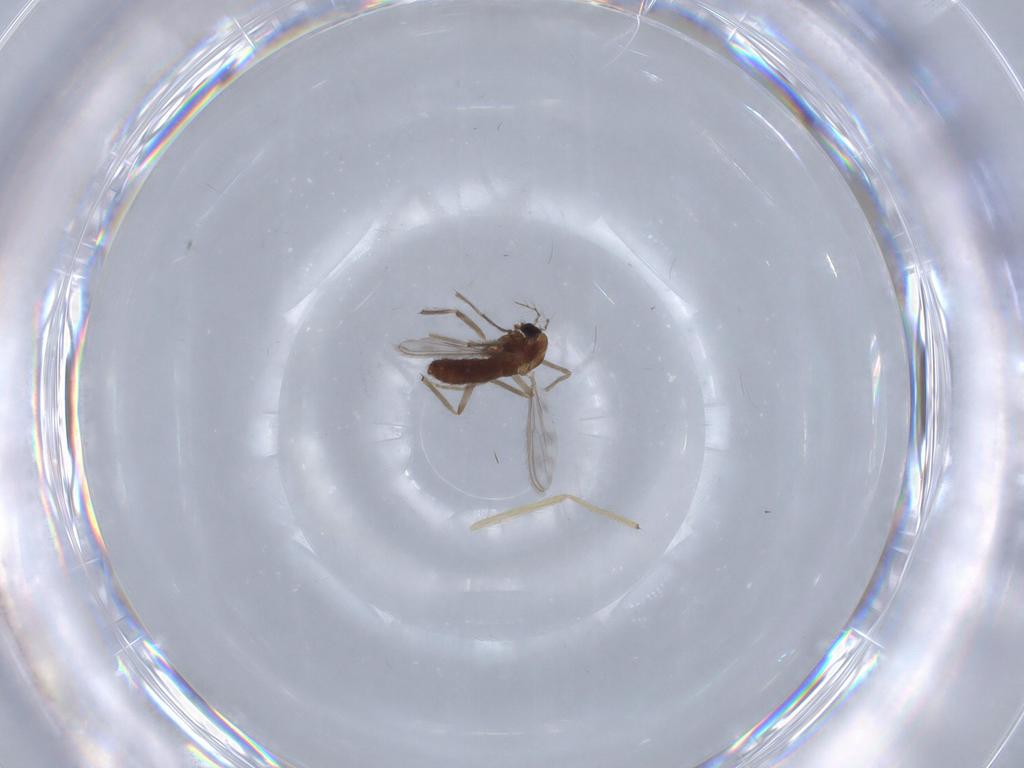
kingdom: Animalia
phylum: Arthropoda
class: Insecta
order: Diptera
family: Chironomidae
